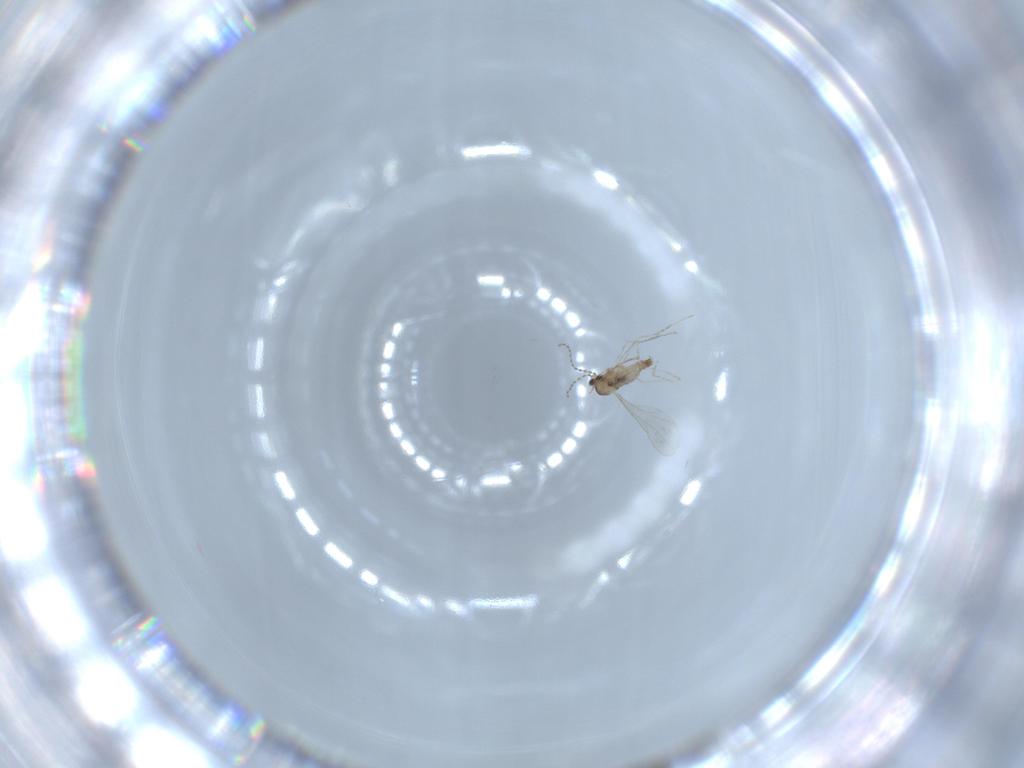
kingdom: Animalia
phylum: Arthropoda
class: Insecta
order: Diptera
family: Cecidomyiidae
